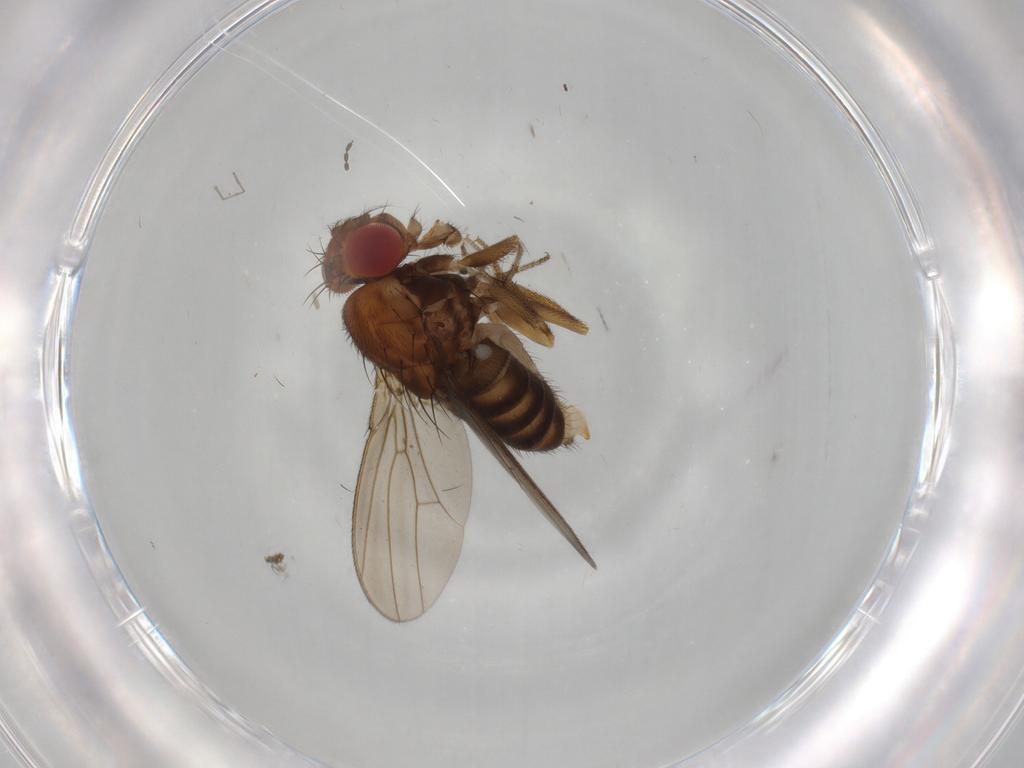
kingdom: Animalia
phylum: Arthropoda
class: Insecta
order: Diptera
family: Drosophilidae
